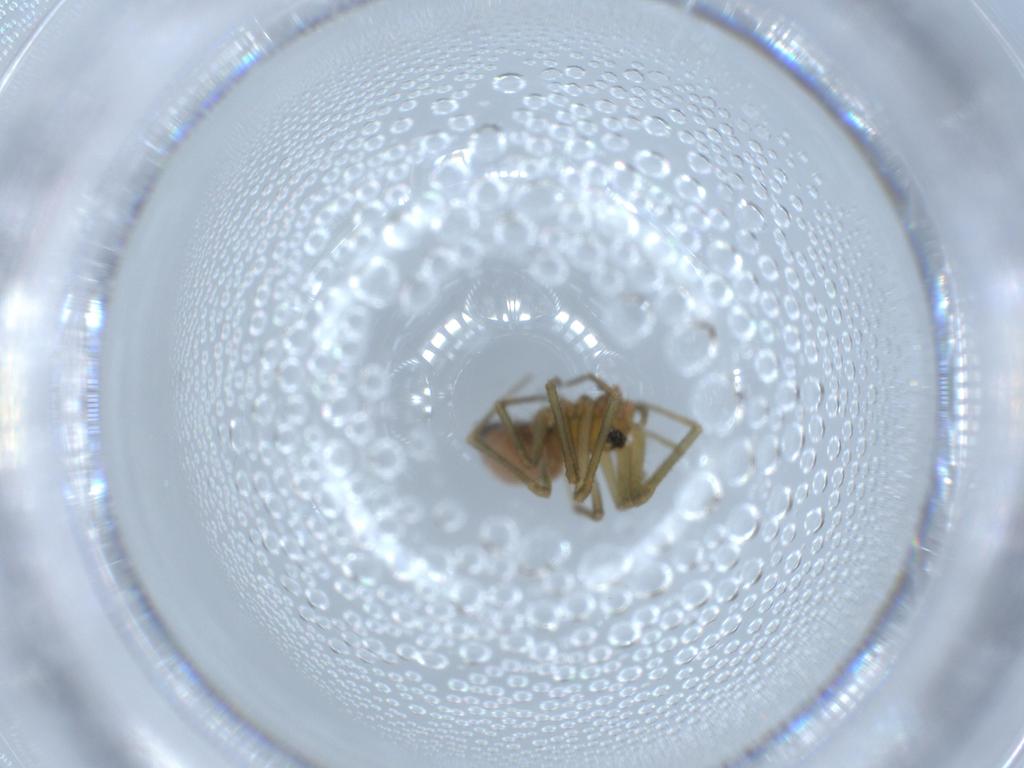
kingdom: Animalia
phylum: Arthropoda
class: Arachnida
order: Araneae
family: Linyphiidae
